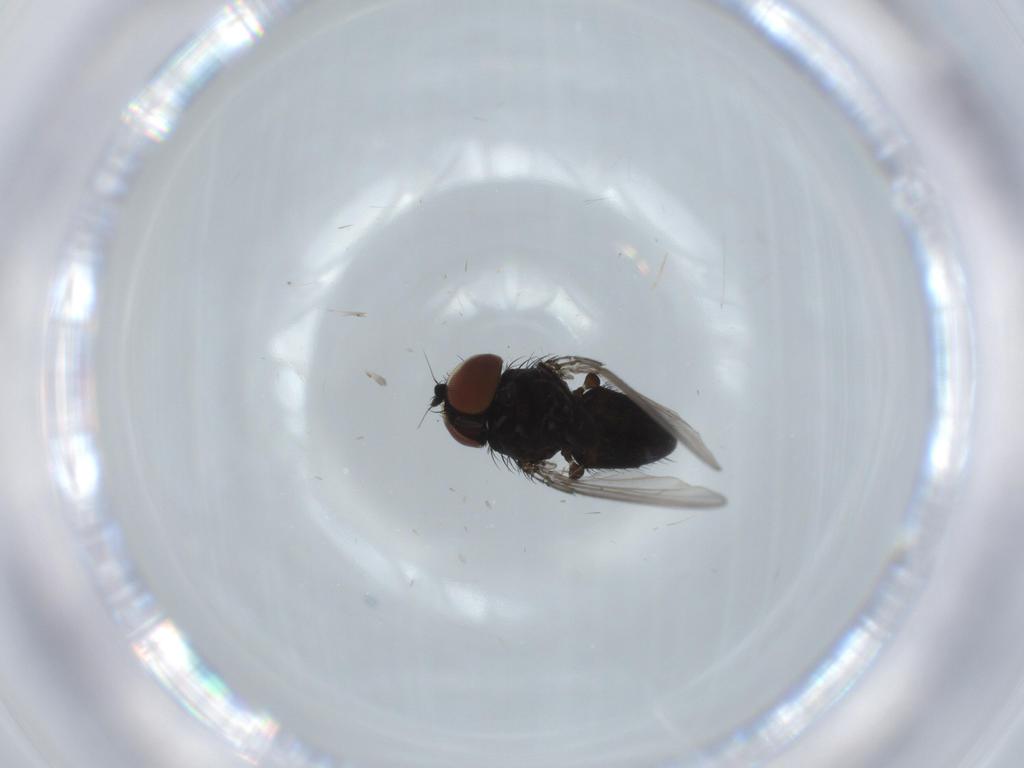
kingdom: Animalia
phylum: Arthropoda
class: Insecta
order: Diptera
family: Milichiidae
